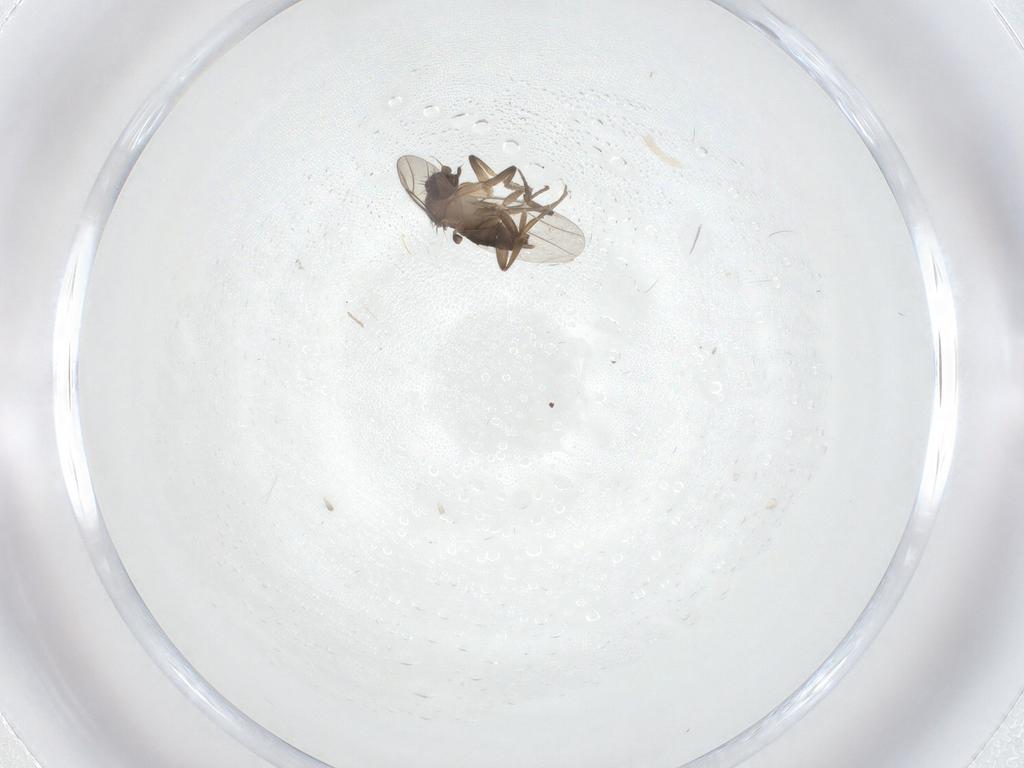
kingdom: Animalia
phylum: Arthropoda
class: Insecta
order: Diptera
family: Phoridae
